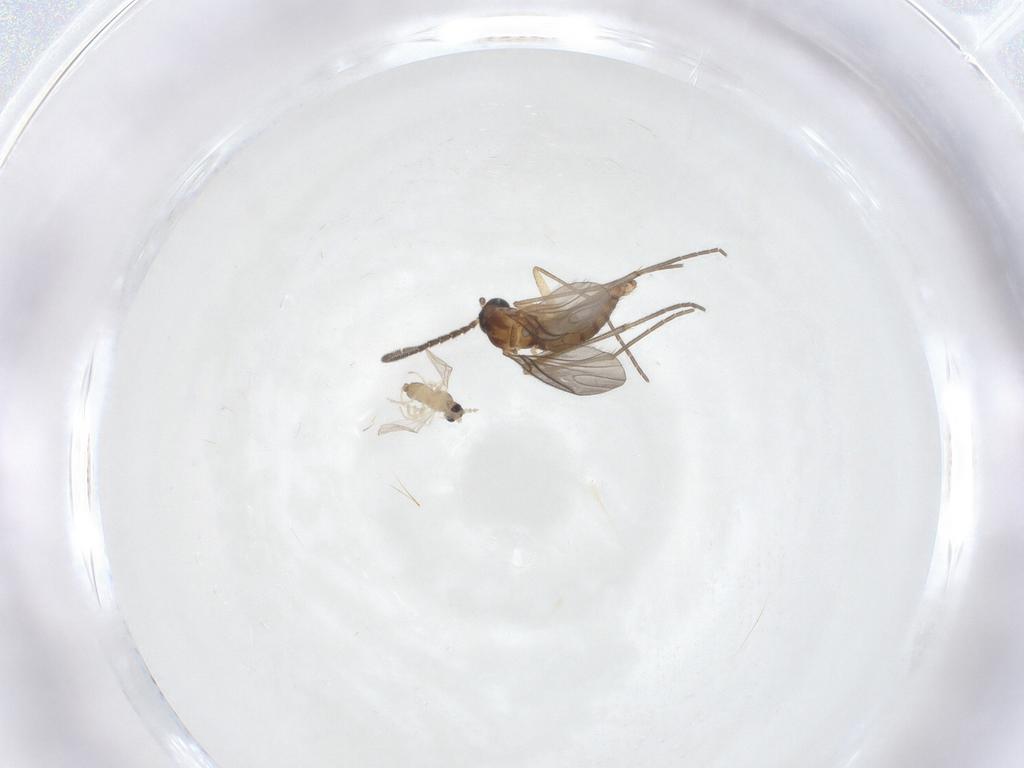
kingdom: Animalia
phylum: Arthropoda
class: Insecta
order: Diptera
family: Sciaridae
